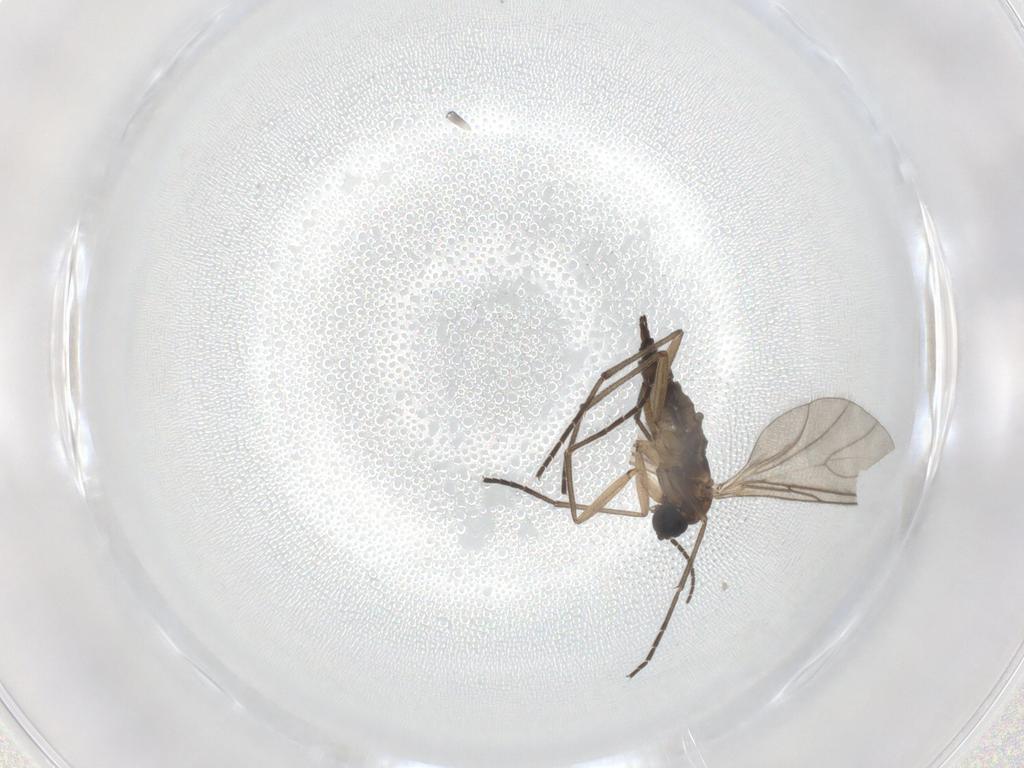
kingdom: Animalia
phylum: Arthropoda
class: Insecta
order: Diptera
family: Sciaridae
